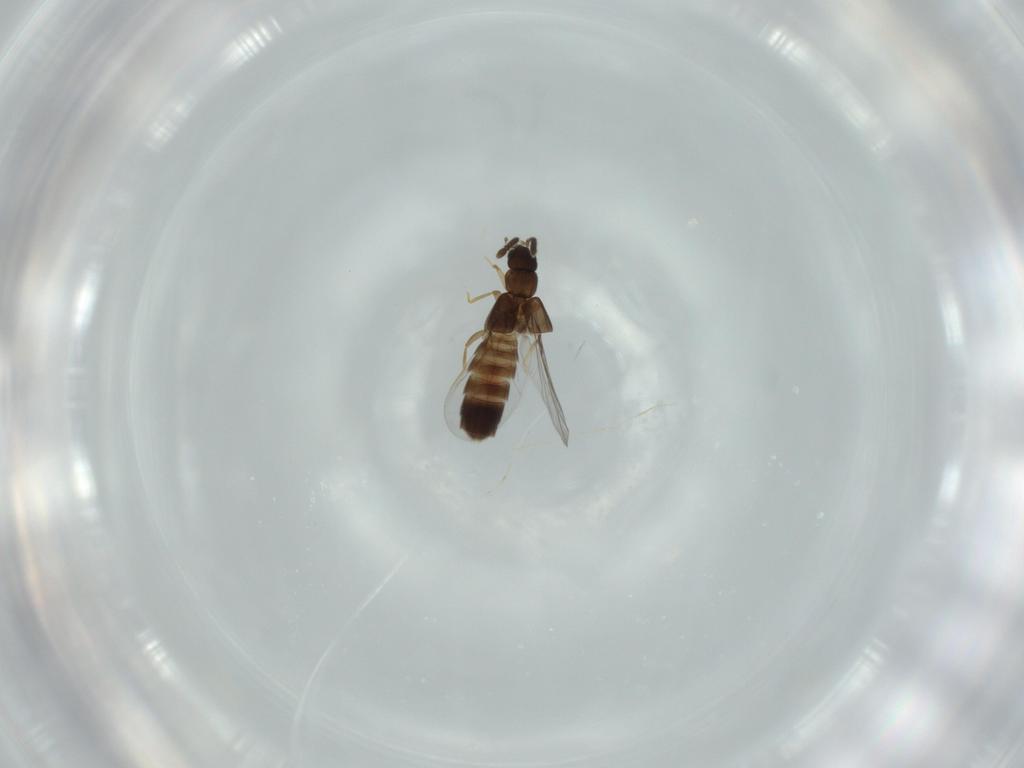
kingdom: Animalia
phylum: Arthropoda
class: Insecta
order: Coleoptera
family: Staphylinidae
